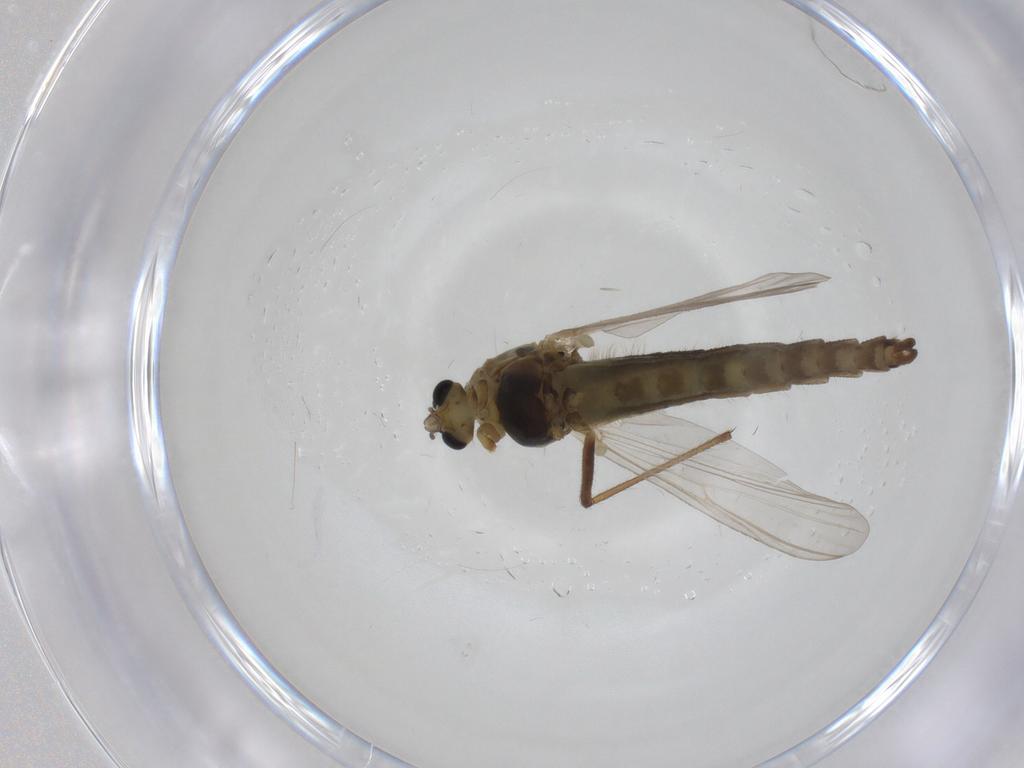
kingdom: Animalia
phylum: Arthropoda
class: Insecta
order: Diptera
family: Chironomidae
